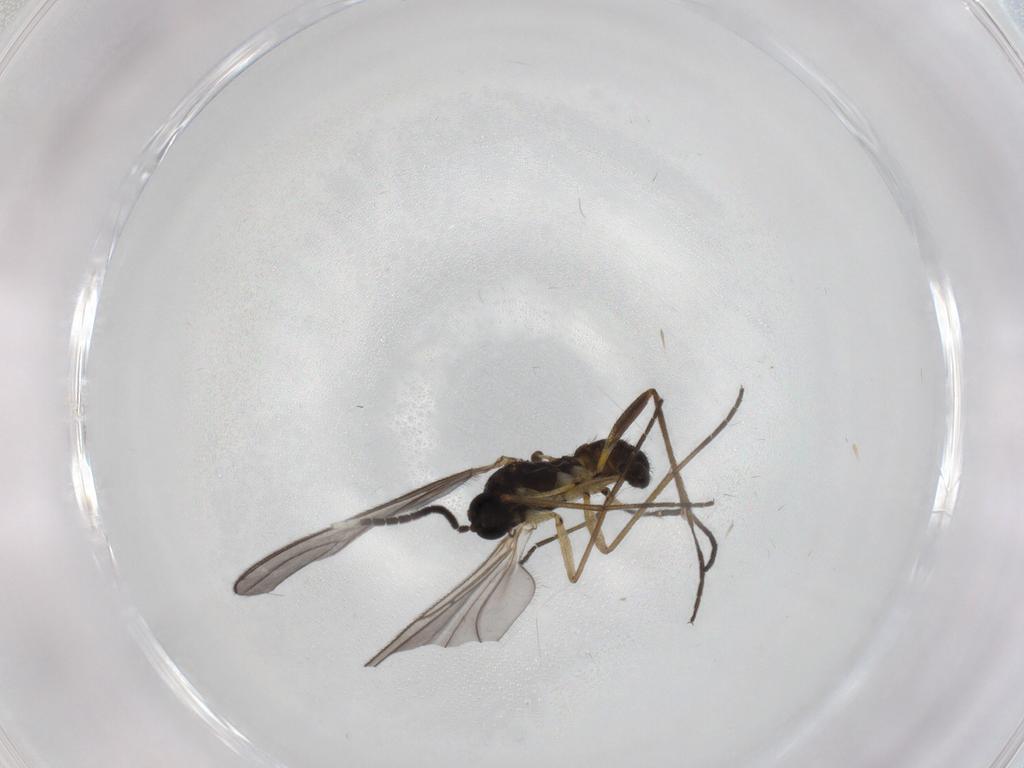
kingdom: Animalia
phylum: Arthropoda
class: Insecta
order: Diptera
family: Sciaridae
